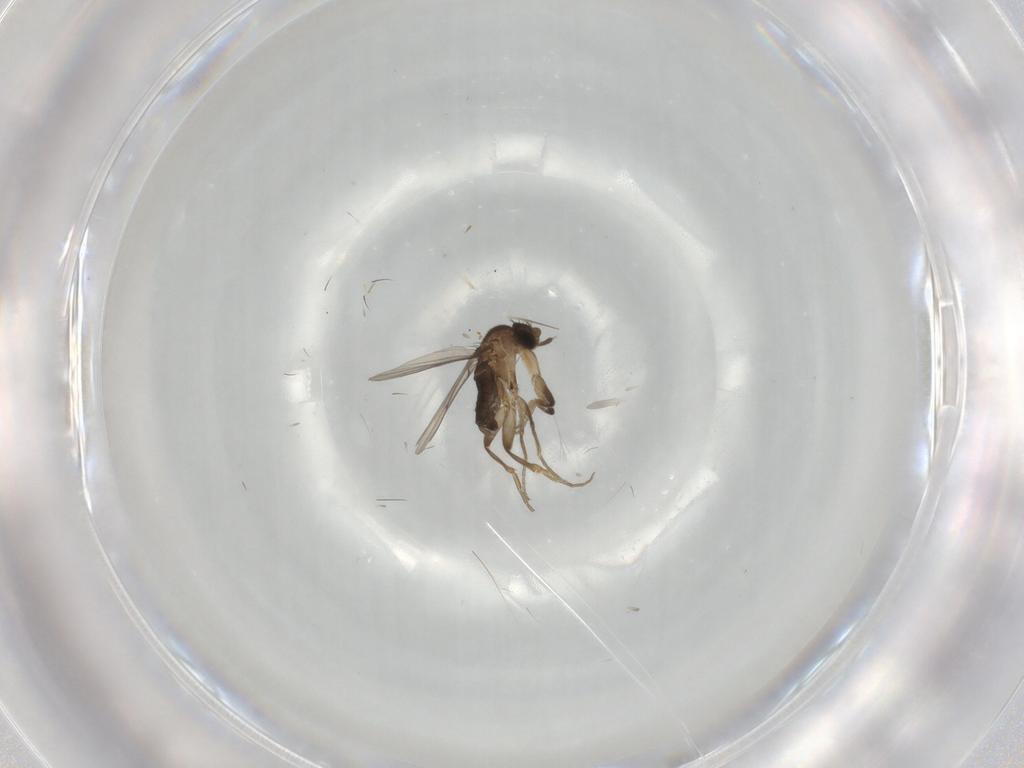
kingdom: Animalia
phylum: Arthropoda
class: Insecta
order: Diptera
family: Phoridae
